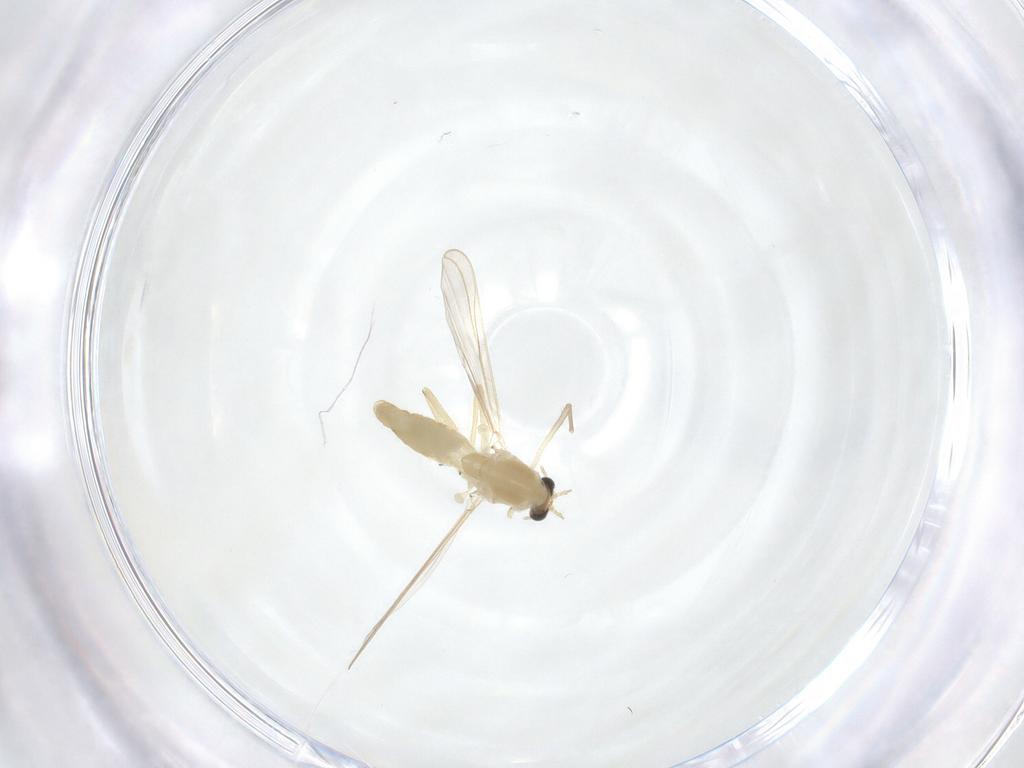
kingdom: Animalia
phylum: Arthropoda
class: Insecta
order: Diptera
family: Chironomidae
